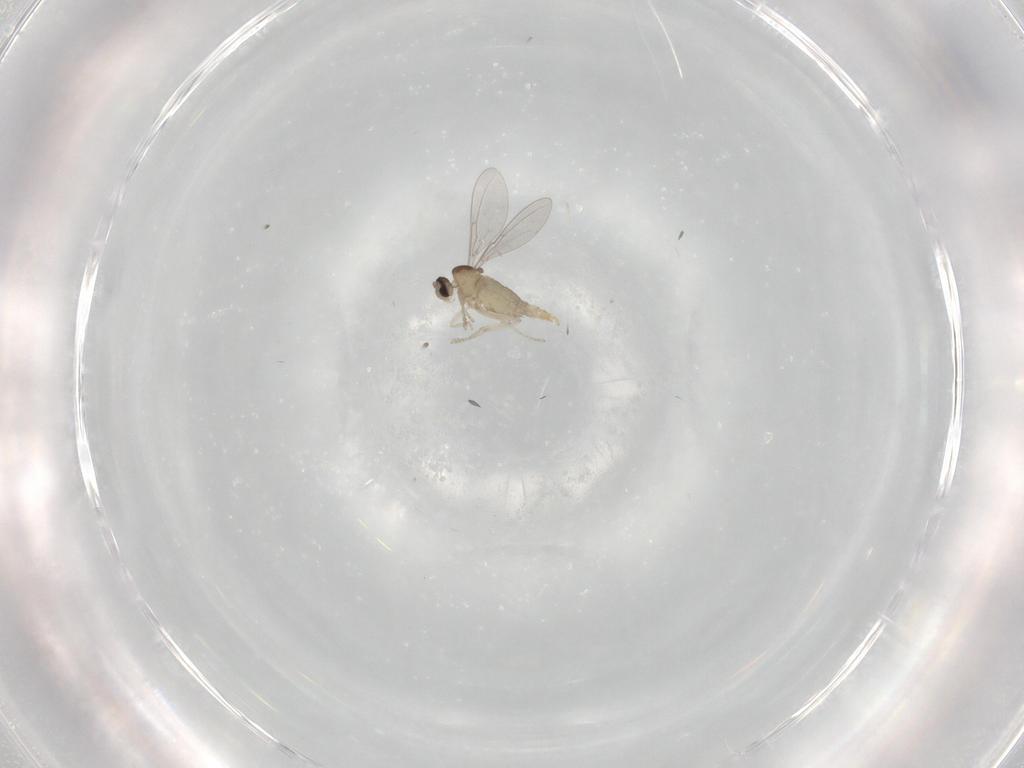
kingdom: Animalia
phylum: Arthropoda
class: Insecta
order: Diptera
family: Cecidomyiidae
